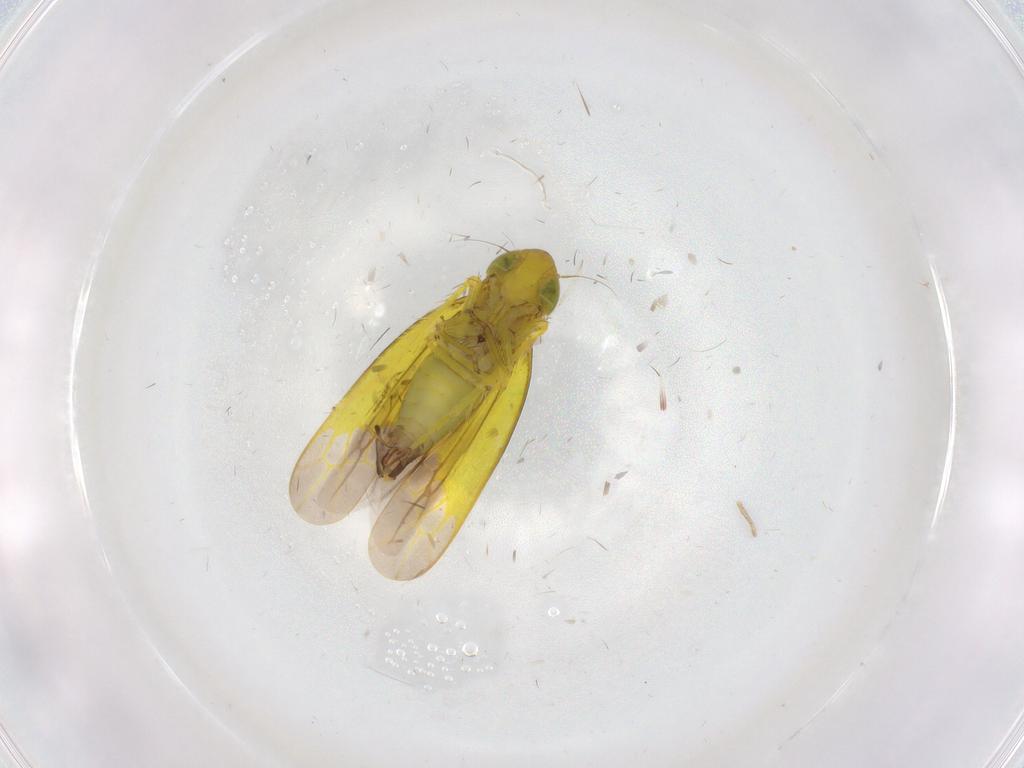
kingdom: Animalia
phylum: Arthropoda
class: Insecta
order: Hemiptera
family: Cicadellidae
